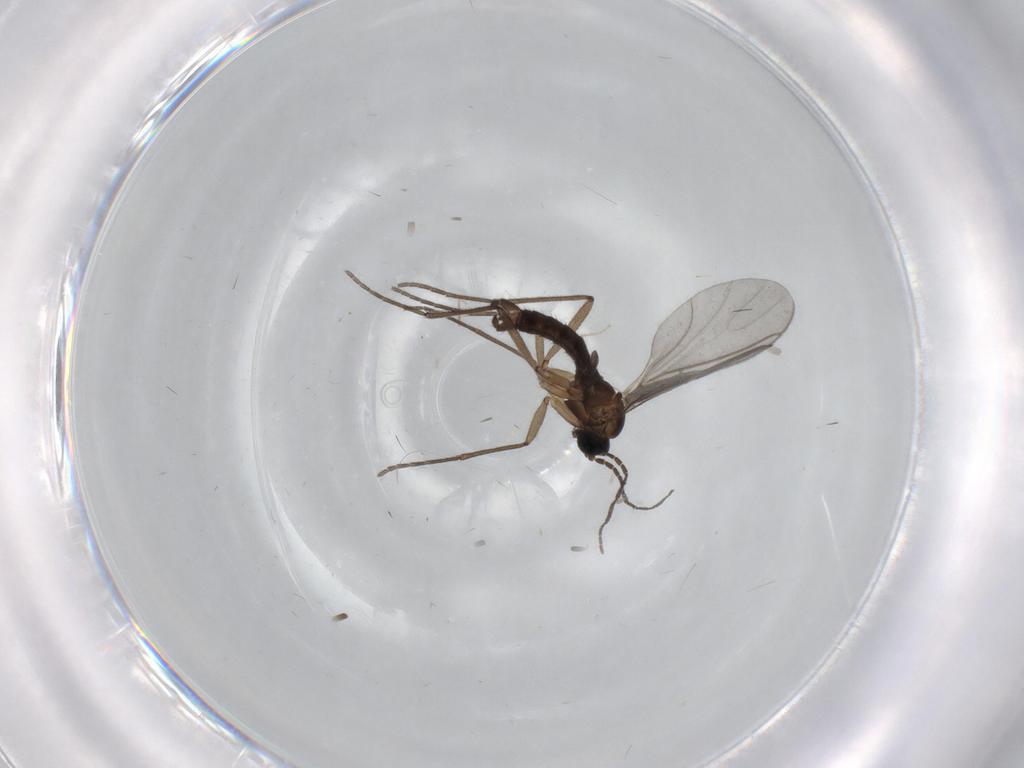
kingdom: Animalia
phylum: Arthropoda
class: Insecta
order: Diptera
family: Sciaridae
